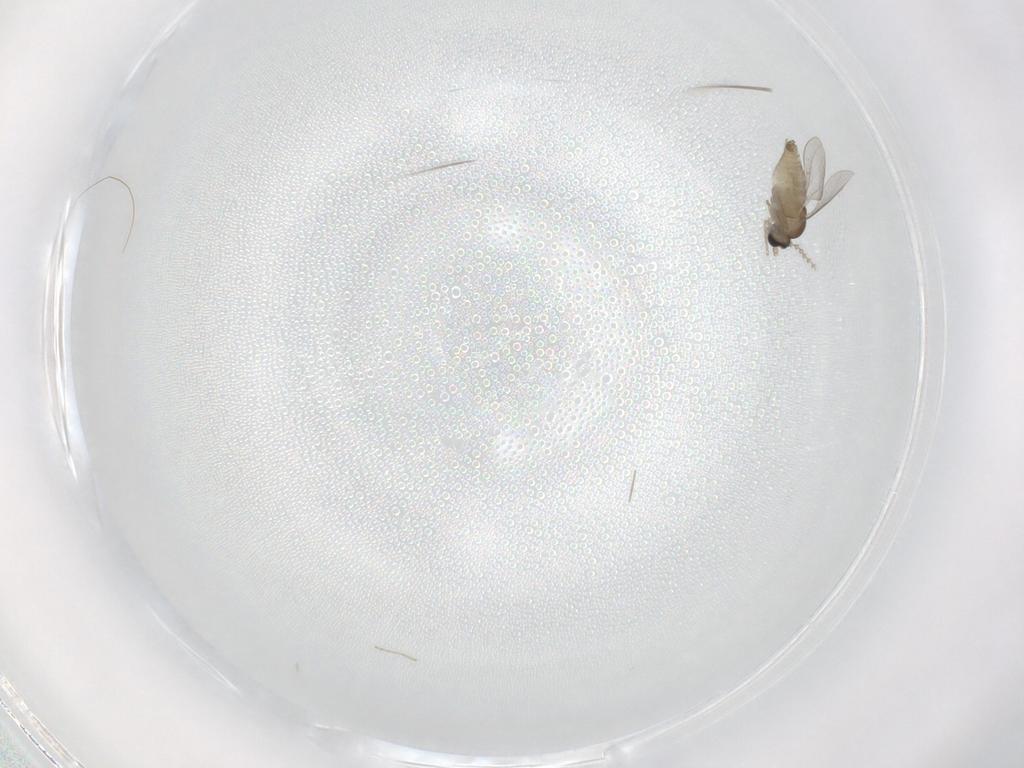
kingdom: Animalia
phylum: Arthropoda
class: Insecta
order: Diptera
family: Cecidomyiidae
